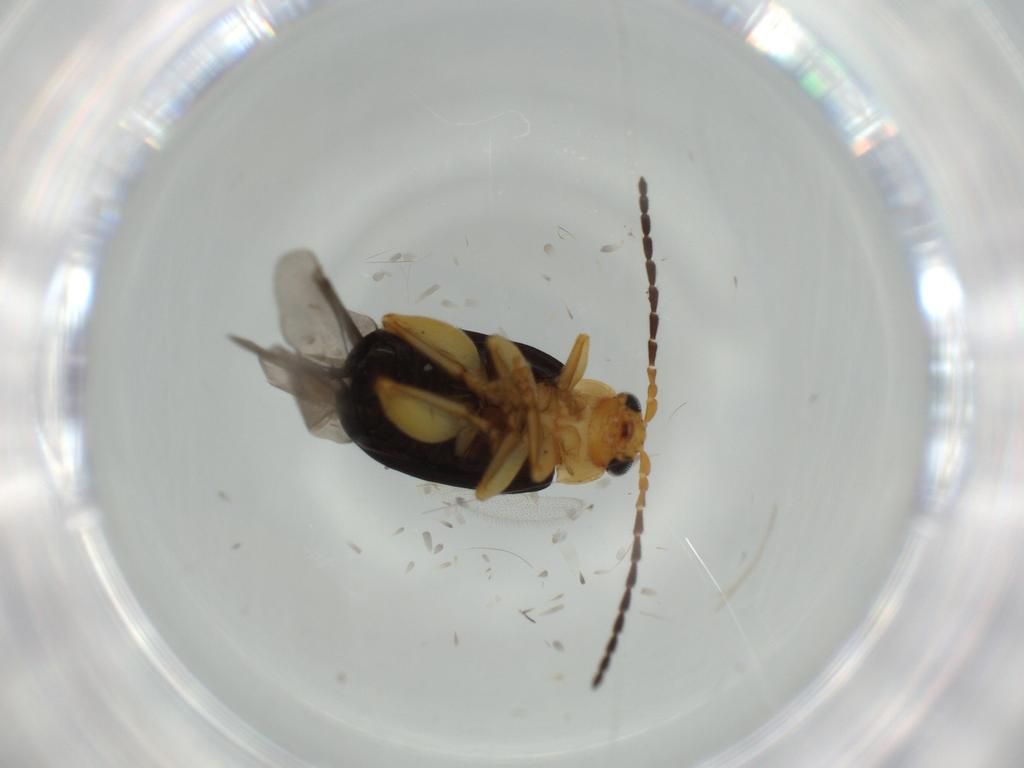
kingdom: Animalia
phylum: Arthropoda
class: Insecta
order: Coleoptera
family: Chrysomelidae
